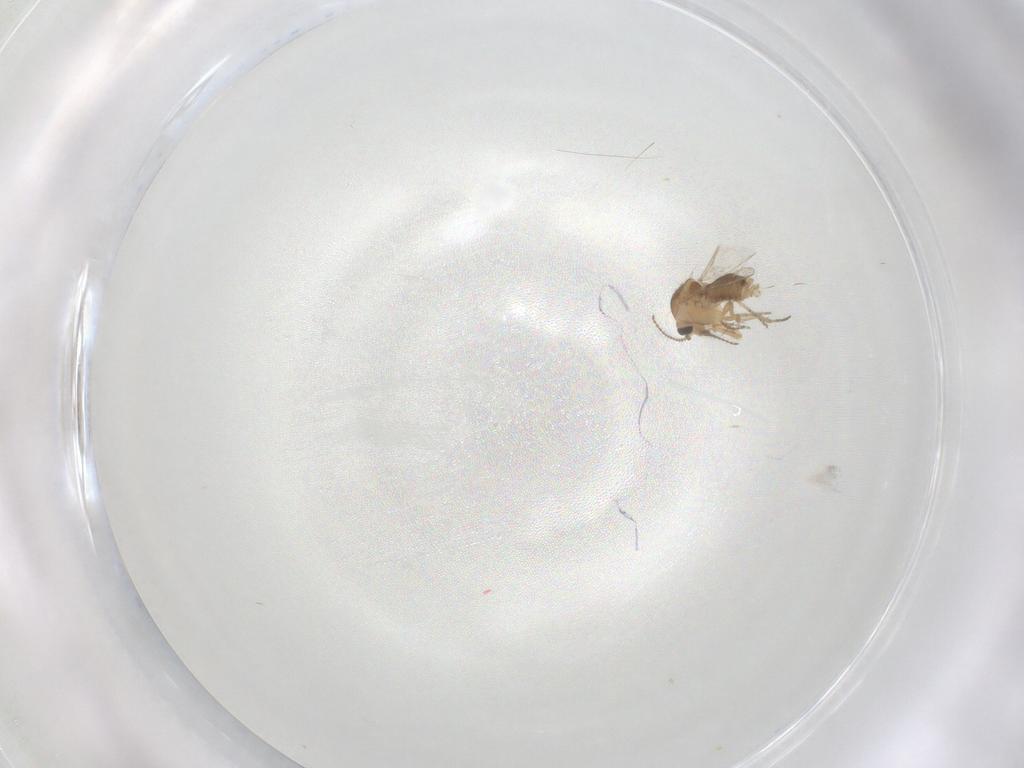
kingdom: Animalia
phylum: Arthropoda
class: Insecta
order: Diptera
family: Ceratopogonidae
